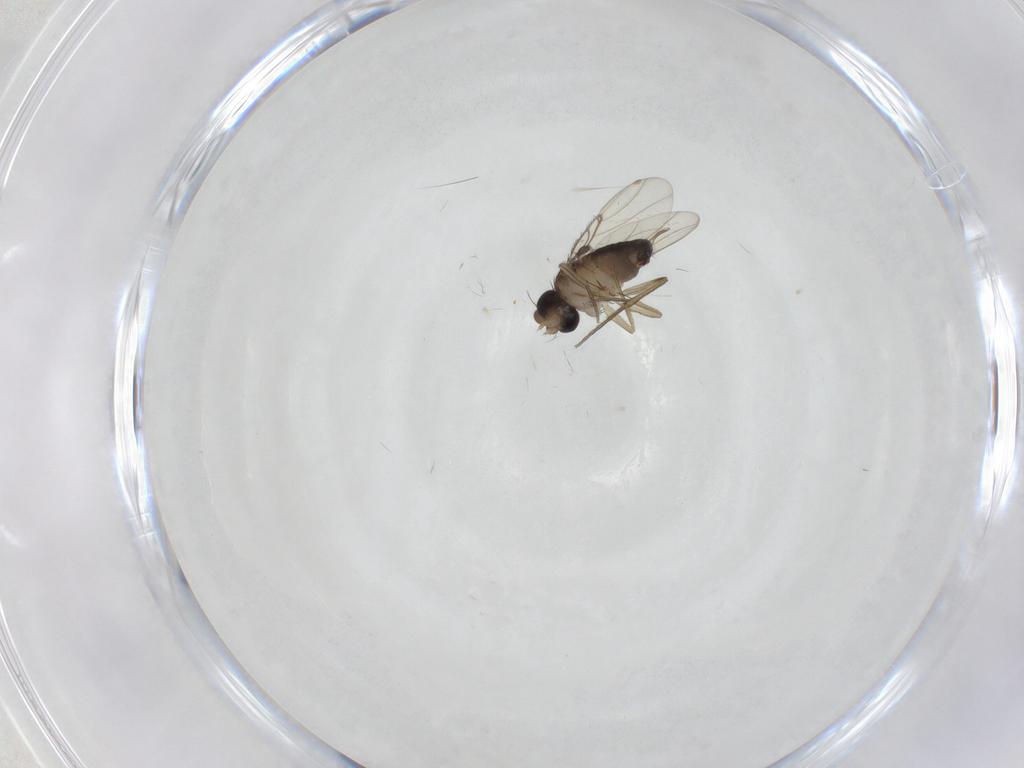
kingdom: Animalia
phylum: Arthropoda
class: Insecta
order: Diptera
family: Phoridae
